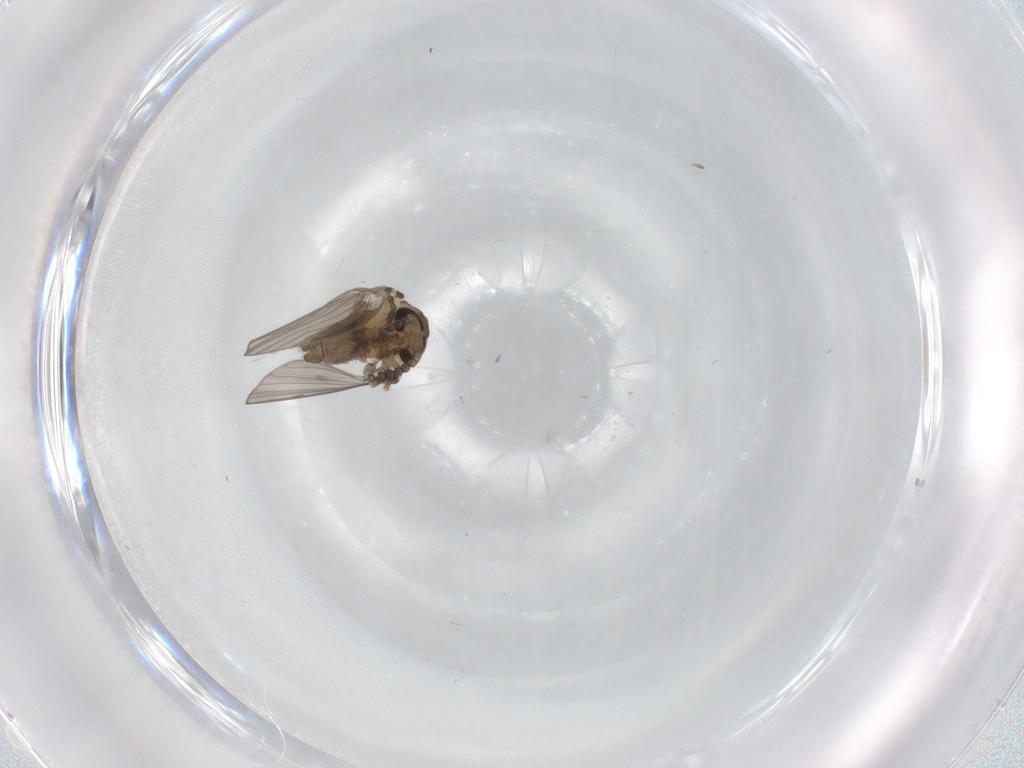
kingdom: Animalia
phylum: Arthropoda
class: Insecta
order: Diptera
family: Psychodidae
